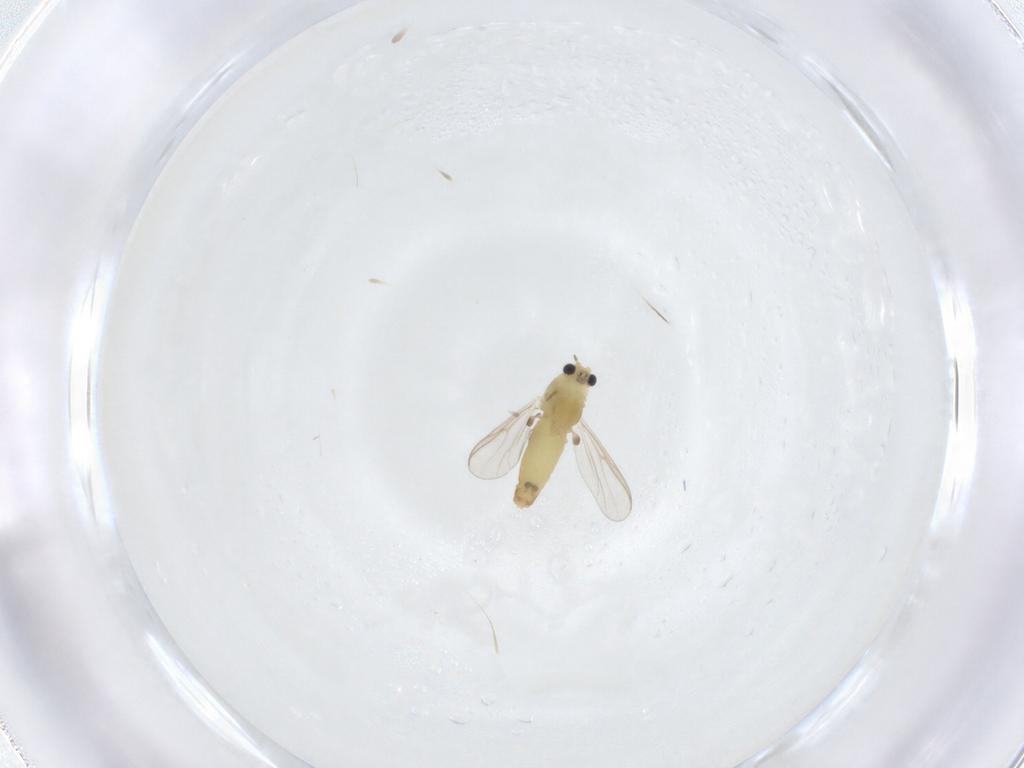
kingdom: Animalia
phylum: Arthropoda
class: Insecta
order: Diptera
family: Chironomidae
